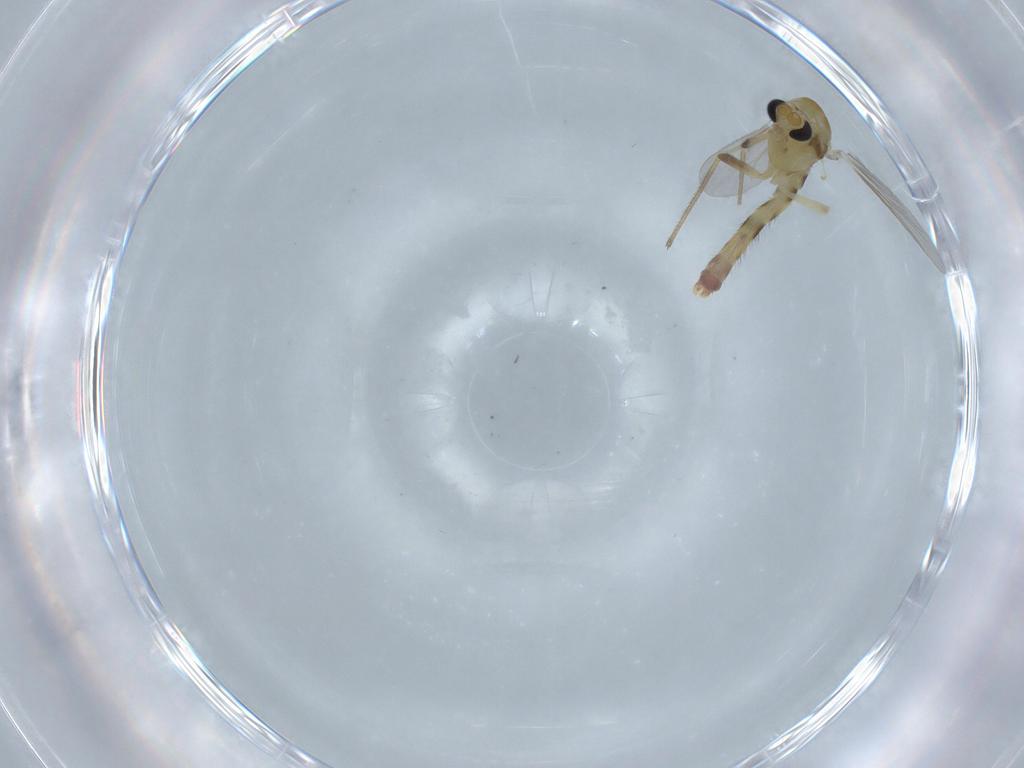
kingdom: Animalia
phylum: Arthropoda
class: Insecta
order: Diptera
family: Chironomidae
